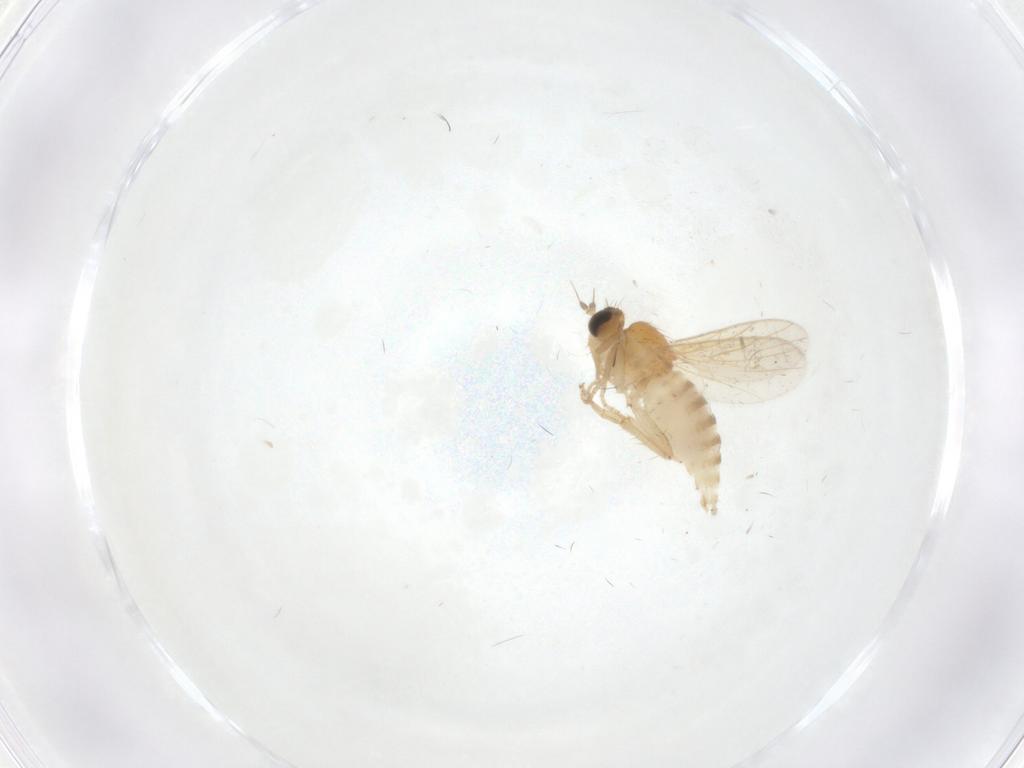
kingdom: Animalia
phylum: Arthropoda
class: Insecta
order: Diptera
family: Hybotidae
